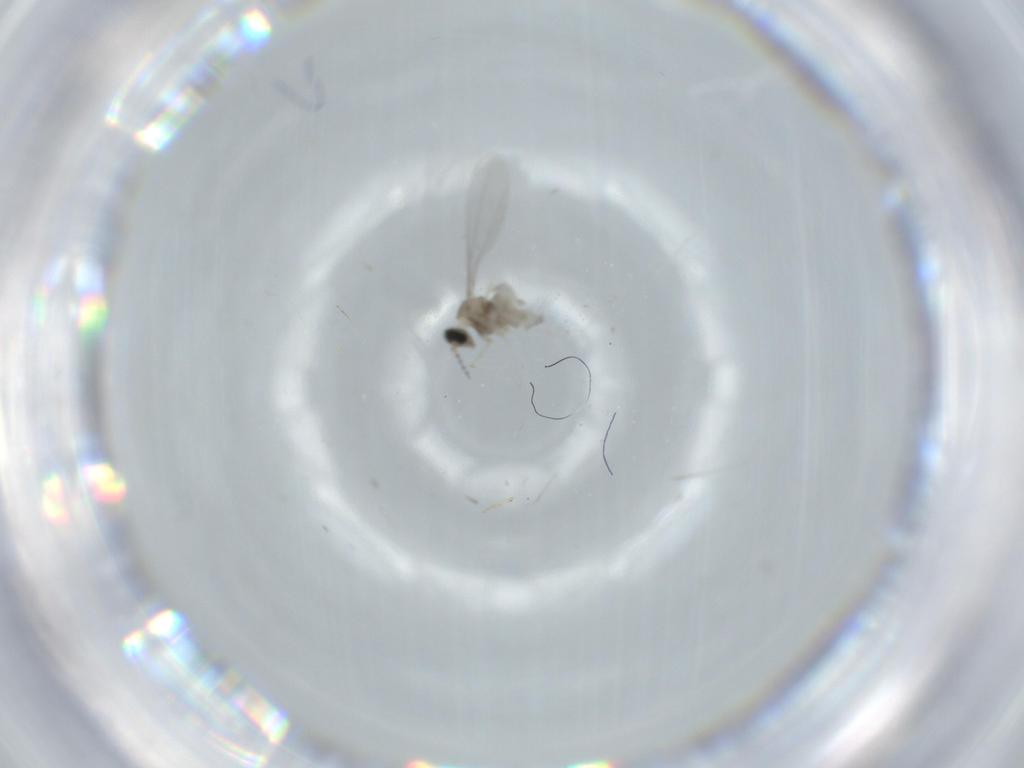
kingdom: Animalia
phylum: Arthropoda
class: Insecta
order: Diptera
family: Cecidomyiidae
